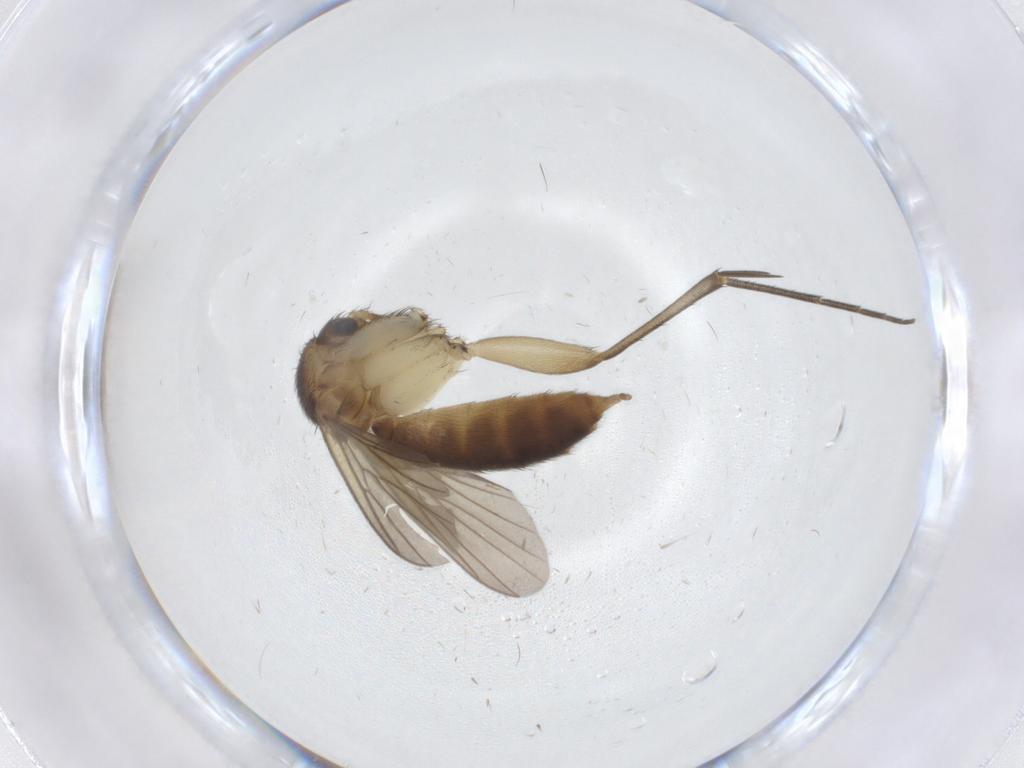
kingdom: Animalia
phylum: Arthropoda
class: Insecta
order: Diptera
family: Mycetophilidae
